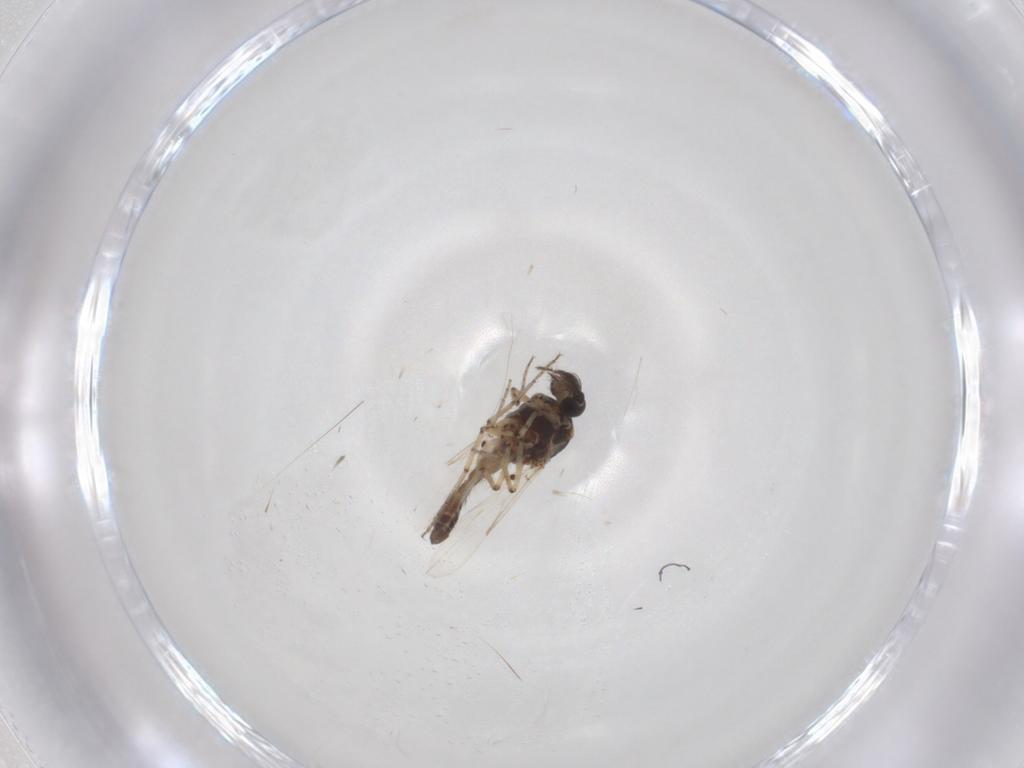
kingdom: Animalia
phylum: Arthropoda
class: Insecta
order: Diptera
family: Ceratopogonidae
